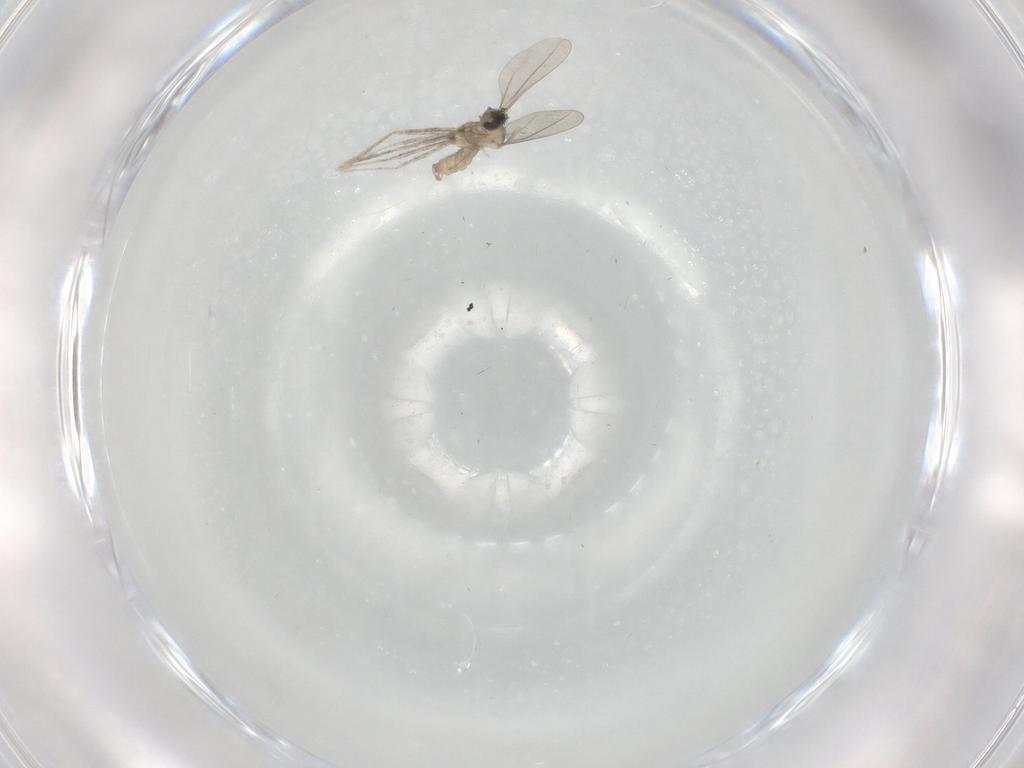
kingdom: Animalia
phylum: Arthropoda
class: Insecta
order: Diptera
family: Cecidomyiidae
